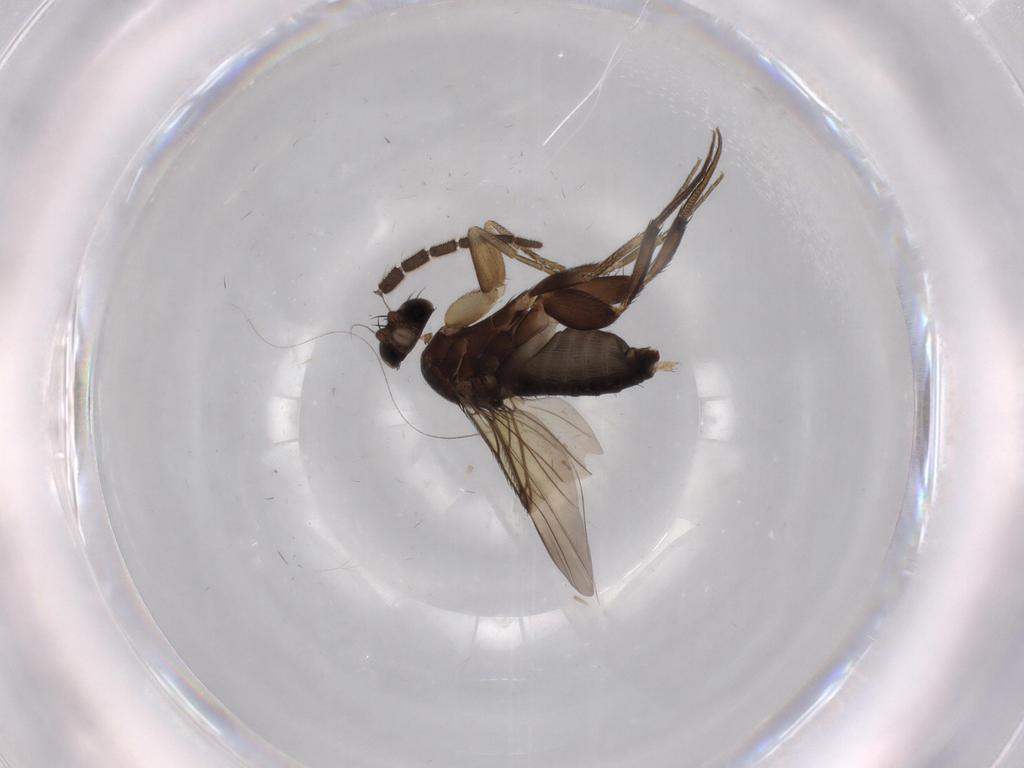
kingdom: Animalia
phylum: Arthropoda
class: Insecta
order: Diptera
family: Phoridae
